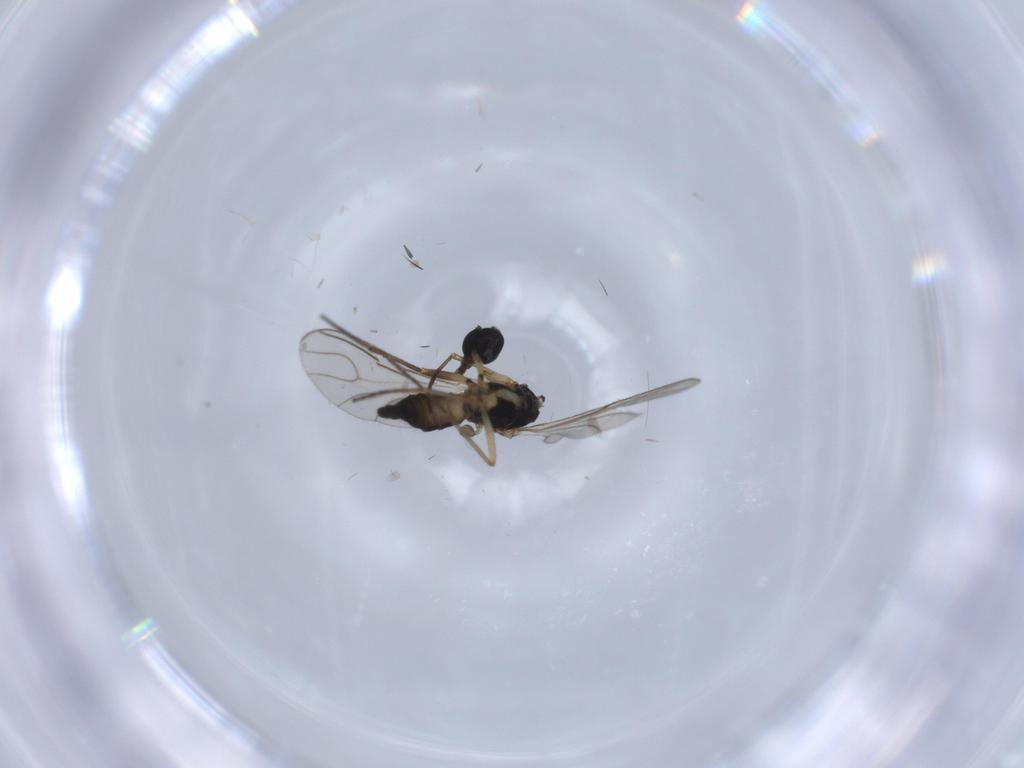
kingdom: Animalia
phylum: Arthropoda
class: Insecta
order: Diptera
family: Sciaridae
